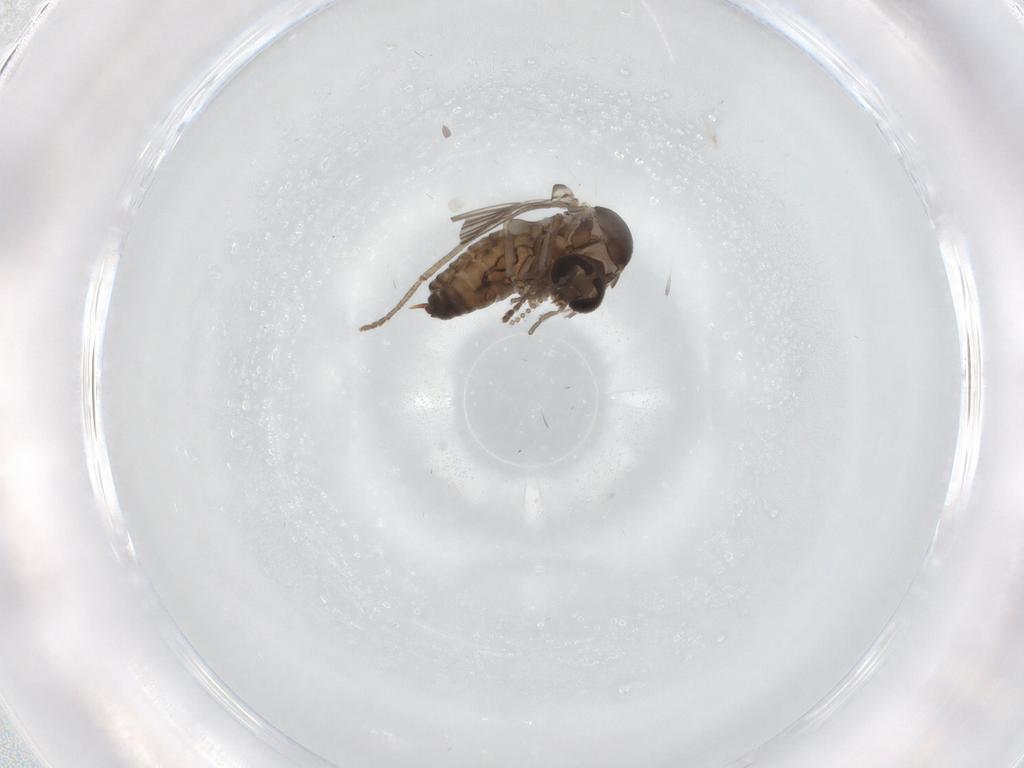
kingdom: Animalia
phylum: Arthropoda
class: Insecta
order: Diptera
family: Psychodidae
